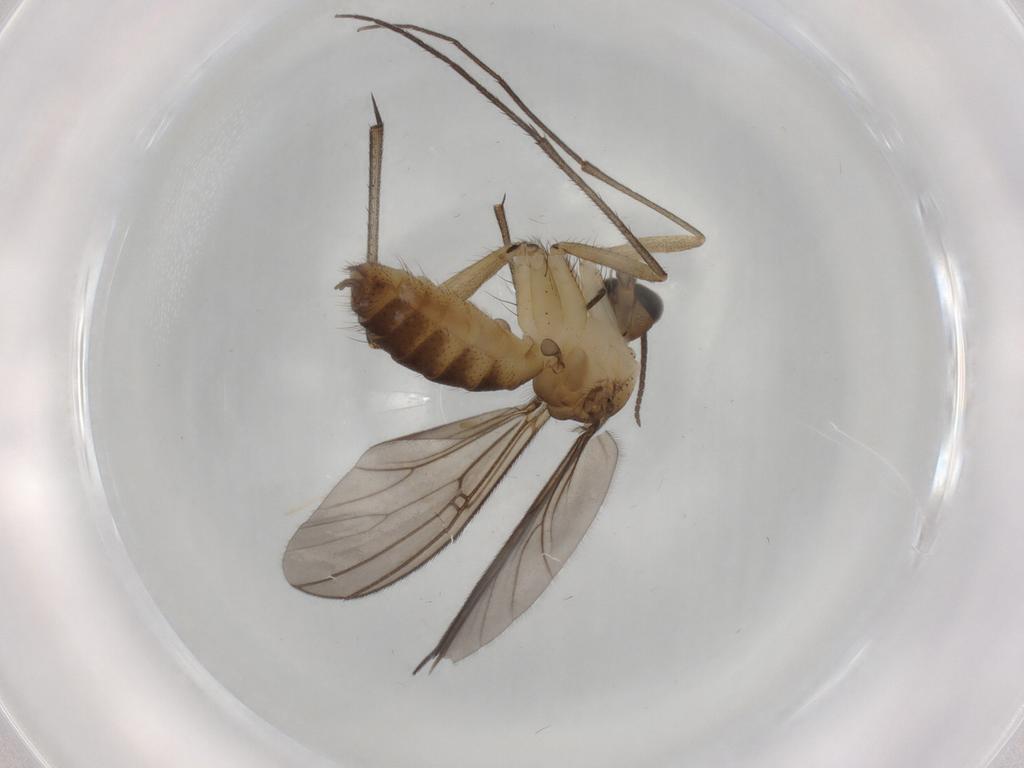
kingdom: Animalia
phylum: Arthropoda
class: Insecta
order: Diptera
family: Mycetophilidae
